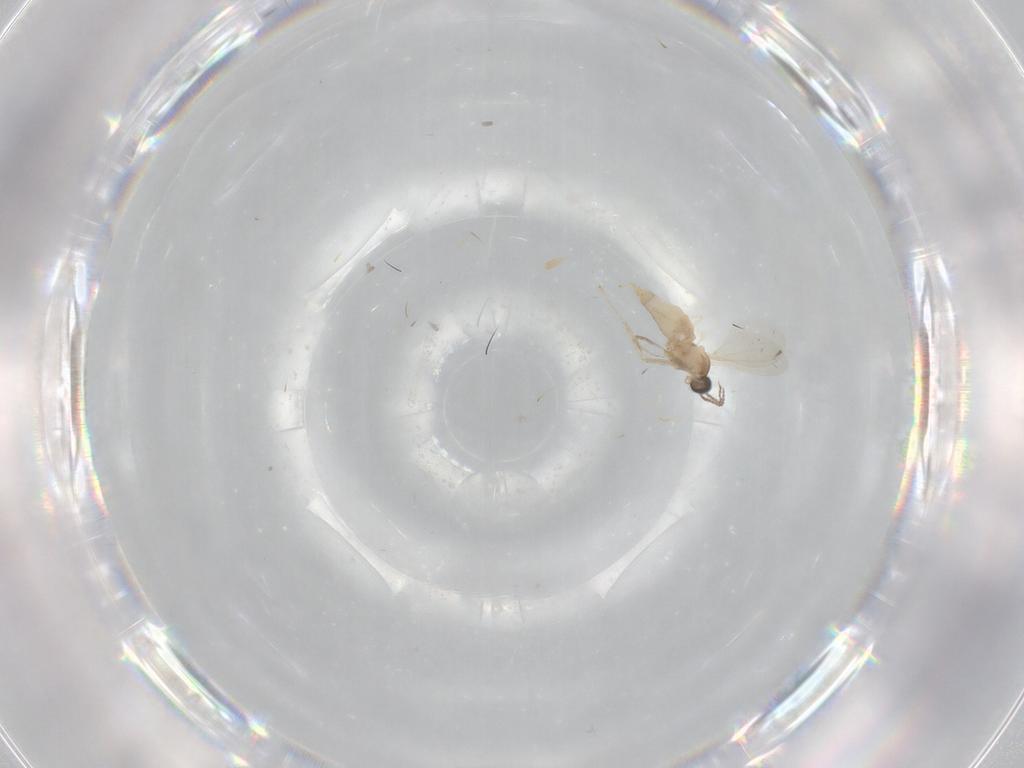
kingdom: Animalia
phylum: Arthropoda
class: Insecta
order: Diptera
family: Cecidomyiidae
